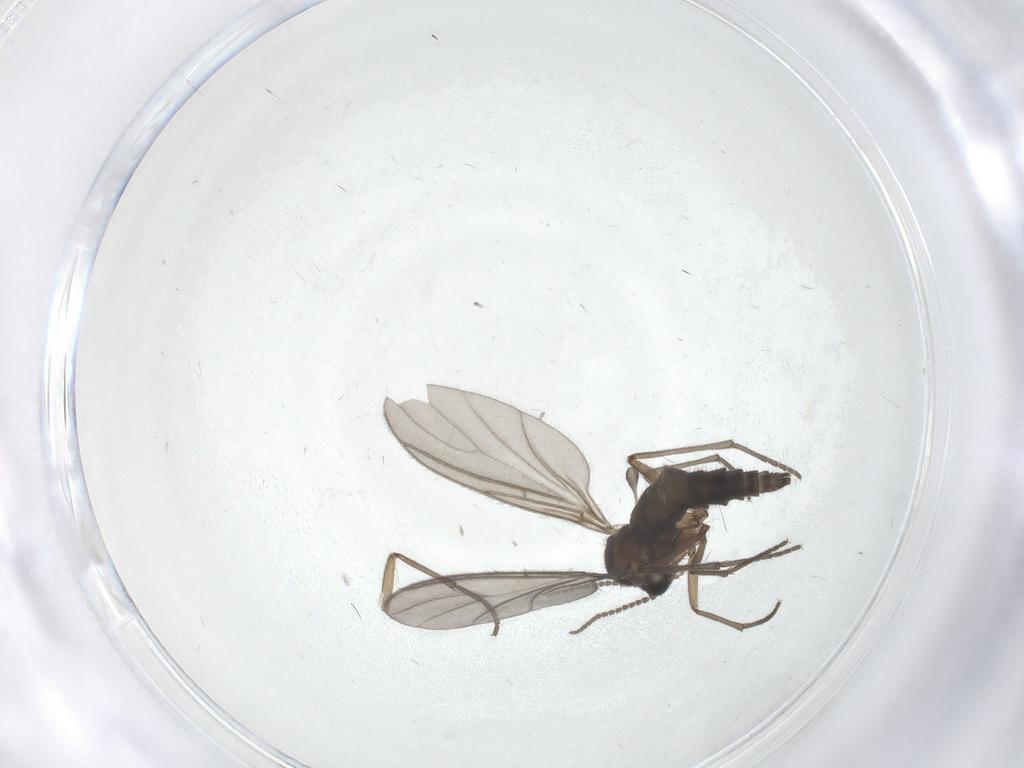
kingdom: Animalia
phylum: Arthropoda
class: Insecta
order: Diptera
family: Sciaridae
